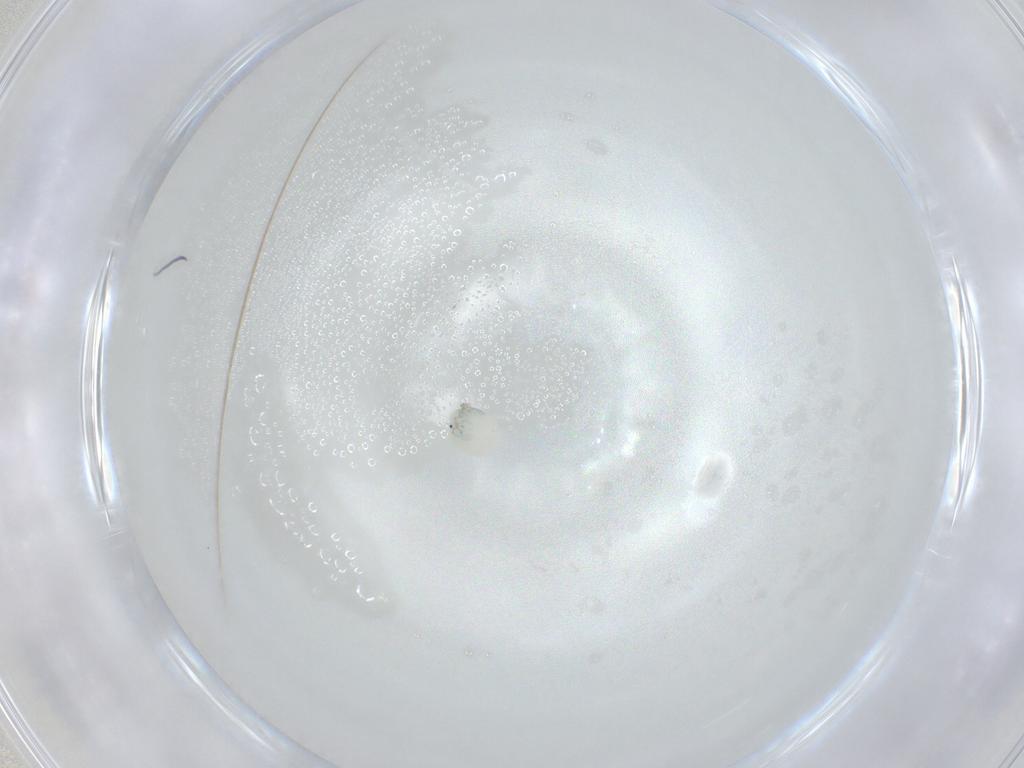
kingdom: Animalia
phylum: Arthropoda
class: Arachnida
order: Trombidiformes
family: Arrenuridae
